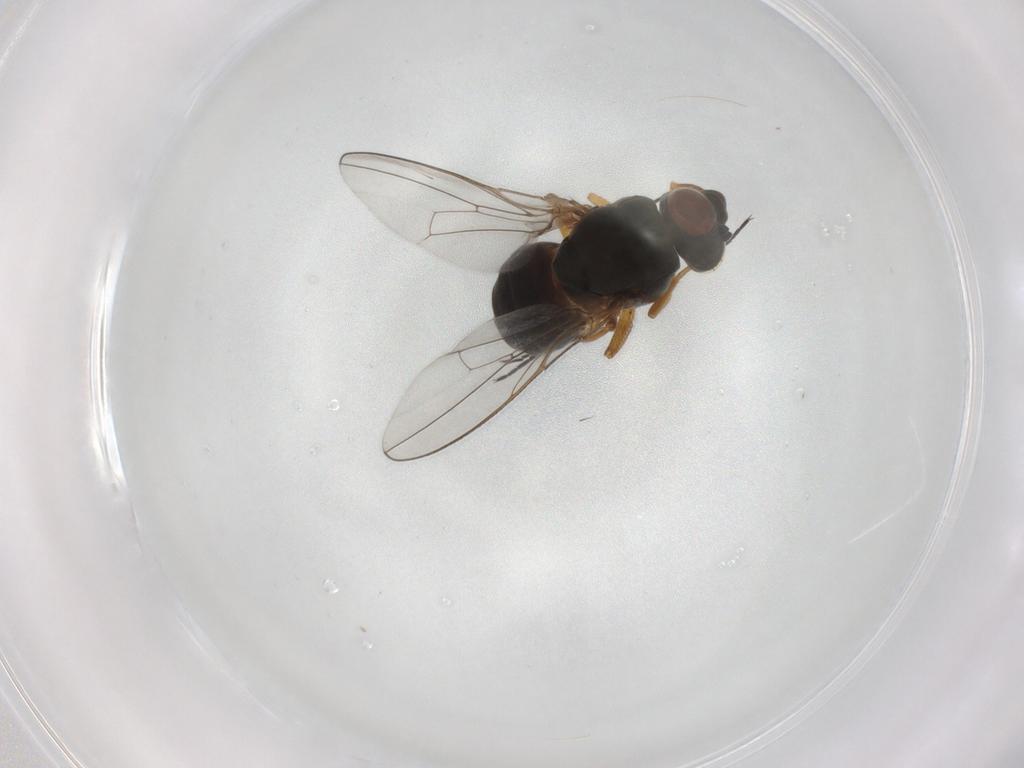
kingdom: Animalia
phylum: Arthropoda
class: Insecta
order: Diptera
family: Ephydridae
